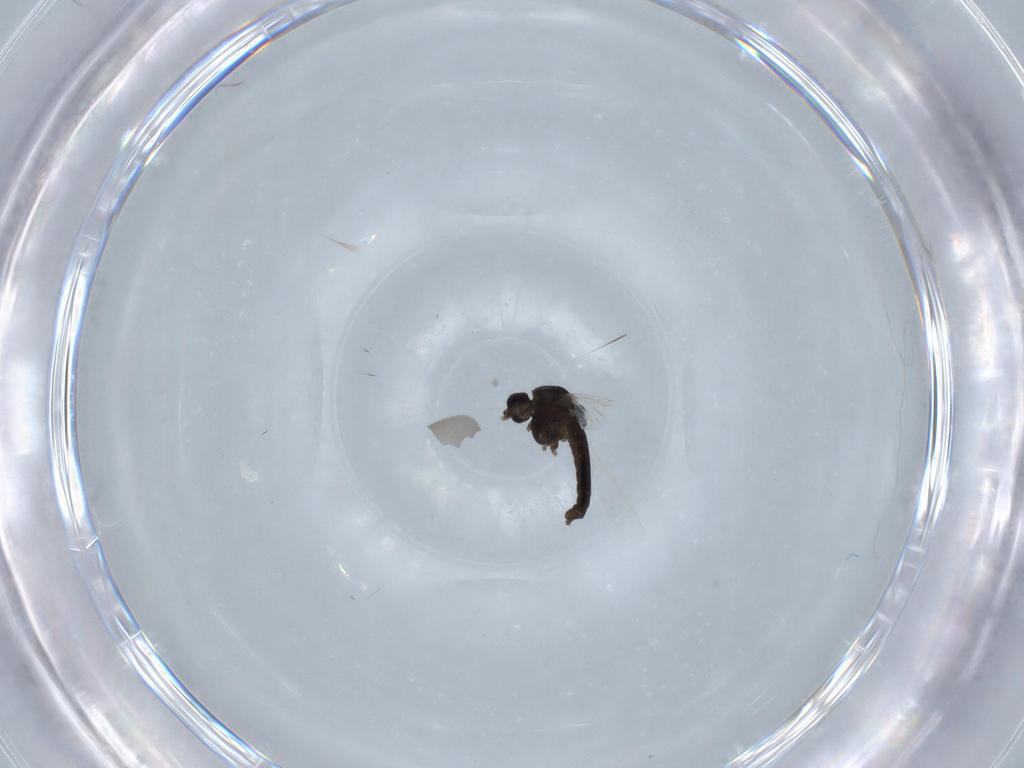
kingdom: Animalia
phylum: Arthropoda
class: Insecta
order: Diptera
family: Chironomidae
